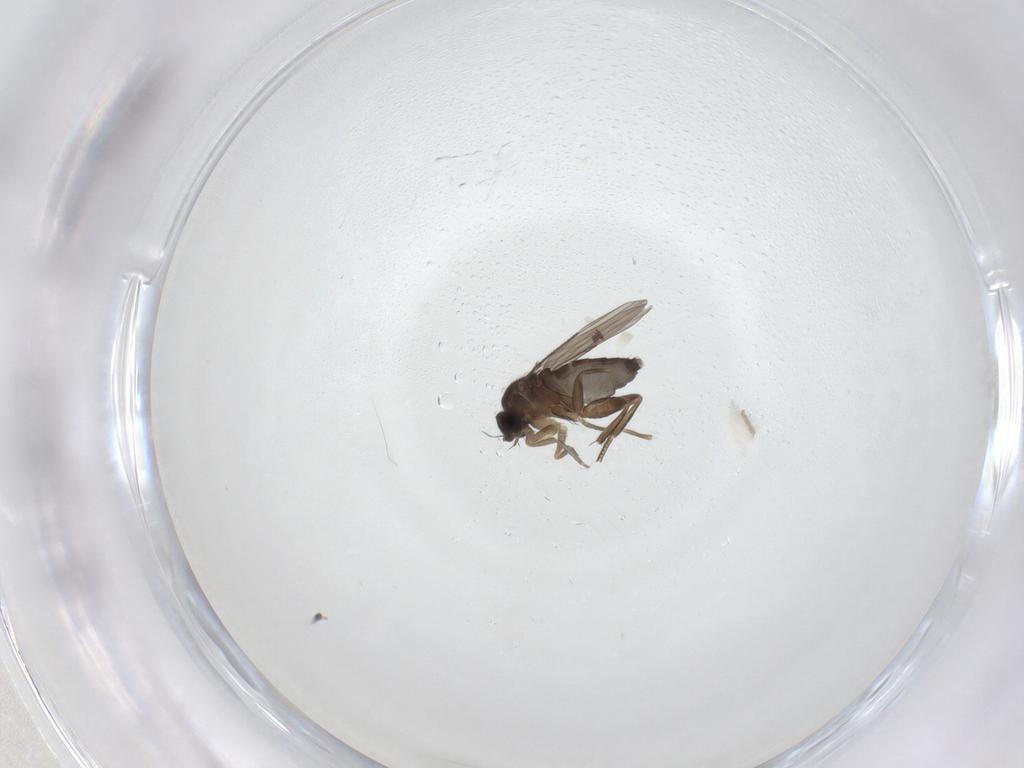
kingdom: Animalia
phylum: Arthropoda
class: Insecta
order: Diptera
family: Phoridae
